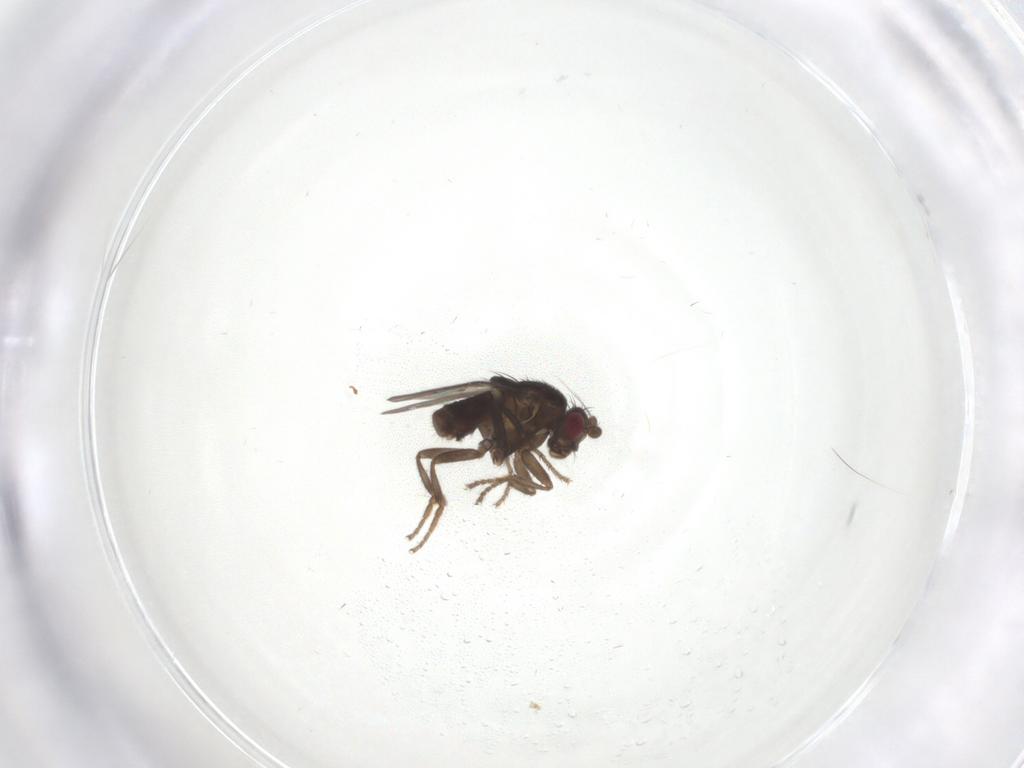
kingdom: Animalia
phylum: Arthropoda
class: Insecta
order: Diptera
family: Sphaeroceridae
